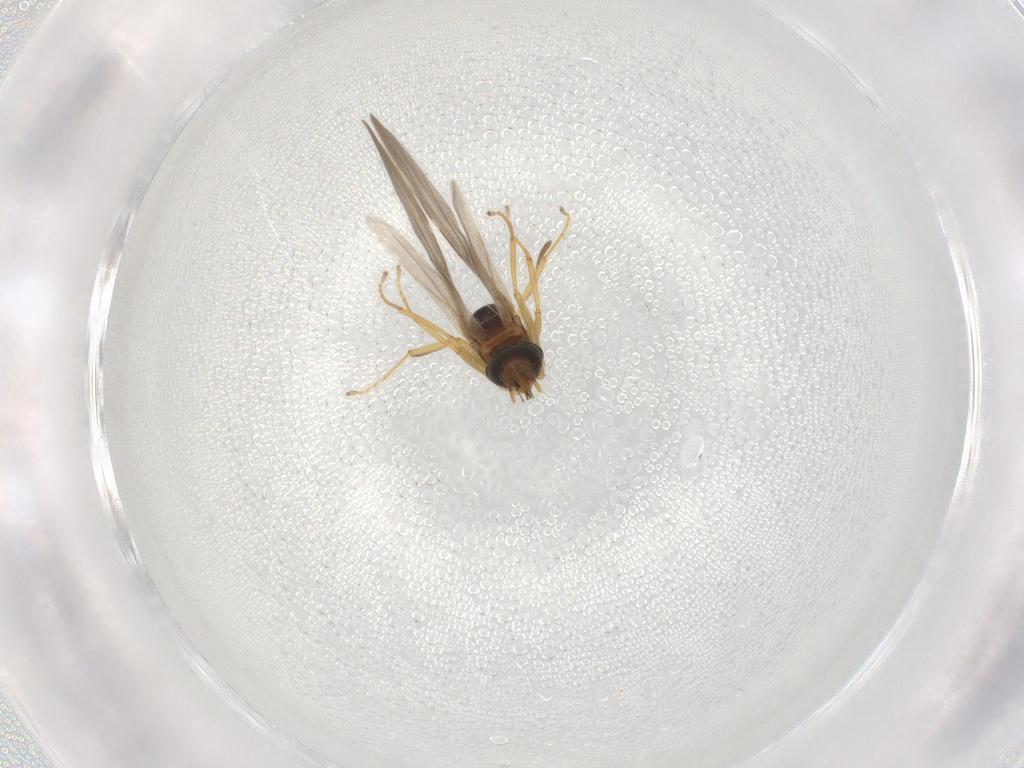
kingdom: Animalia
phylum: Arthropoda
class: Insecta
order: Hymenoptera
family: Formicidae
